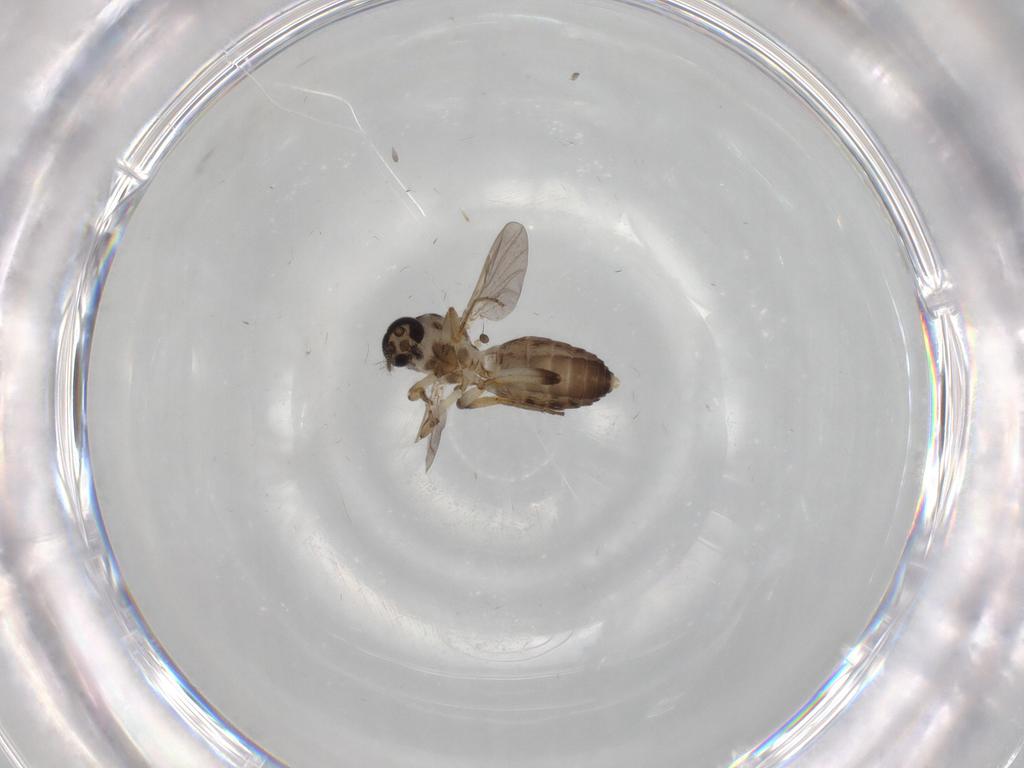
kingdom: Animalia
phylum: Arthropoda
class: Insecta
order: Diptera
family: Ceratopogonidae
